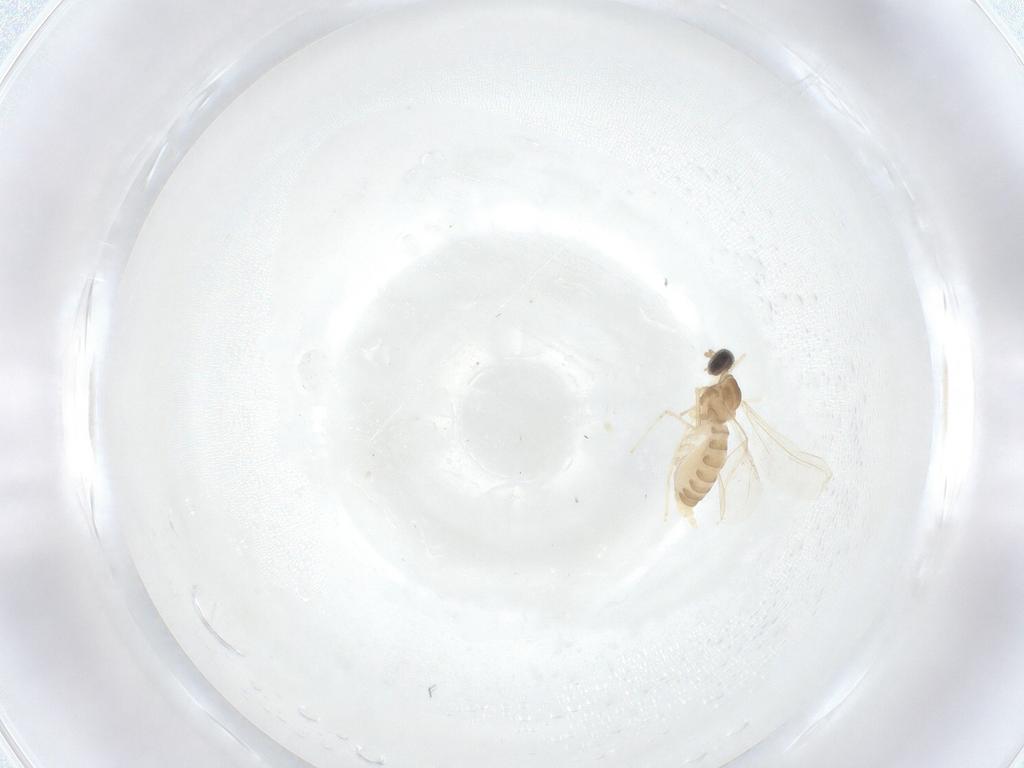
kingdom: Animalia
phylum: Arthropoda
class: Insecta
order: Diptera
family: Cecidomyiidae
